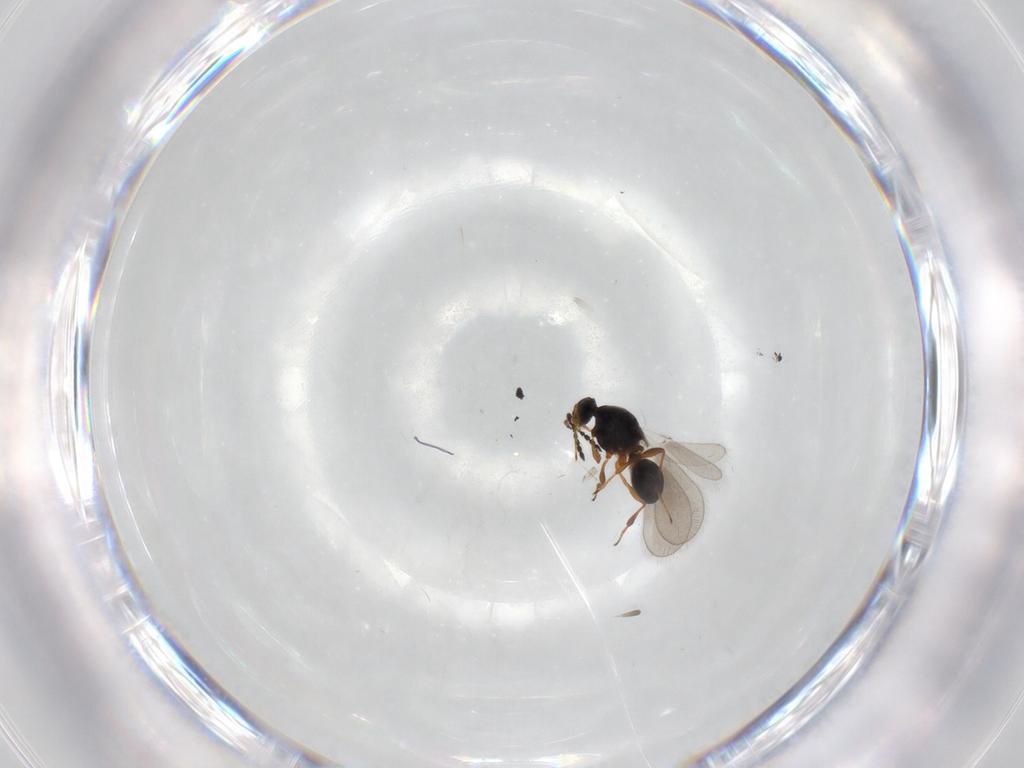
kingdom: Animalia
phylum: Arthropoda
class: Insecta
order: Hymenoptera
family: Platygastridae
